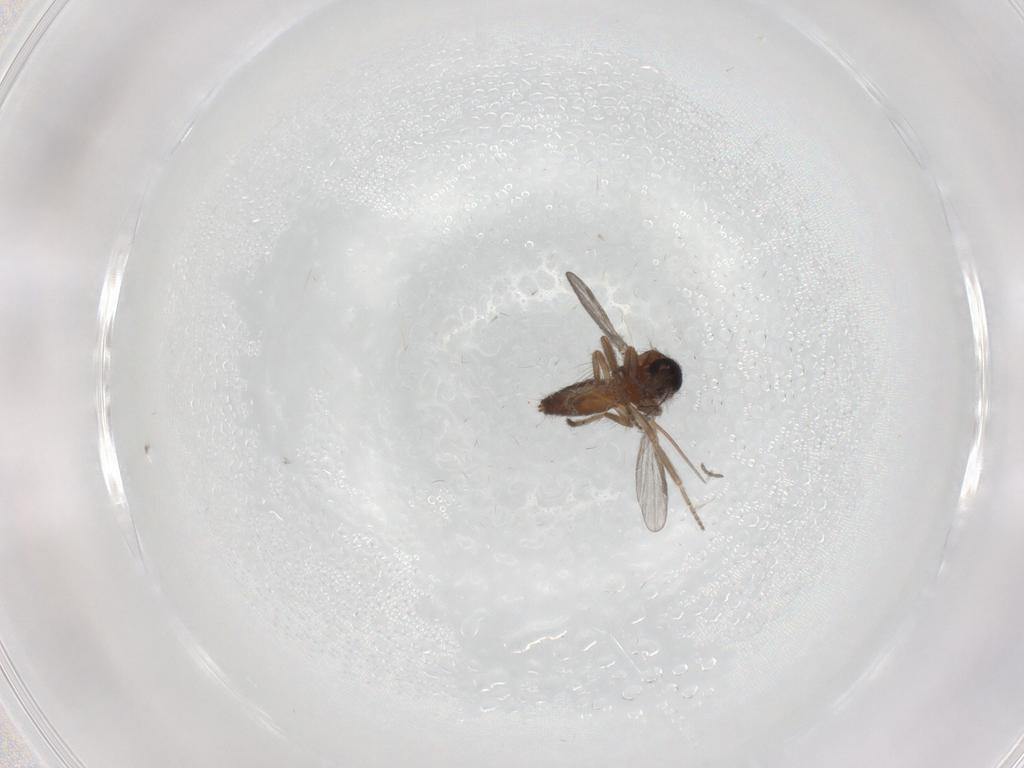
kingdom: Animalia
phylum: Arthropoda
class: Insecta
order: Diptera
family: Ceratopogonidae
